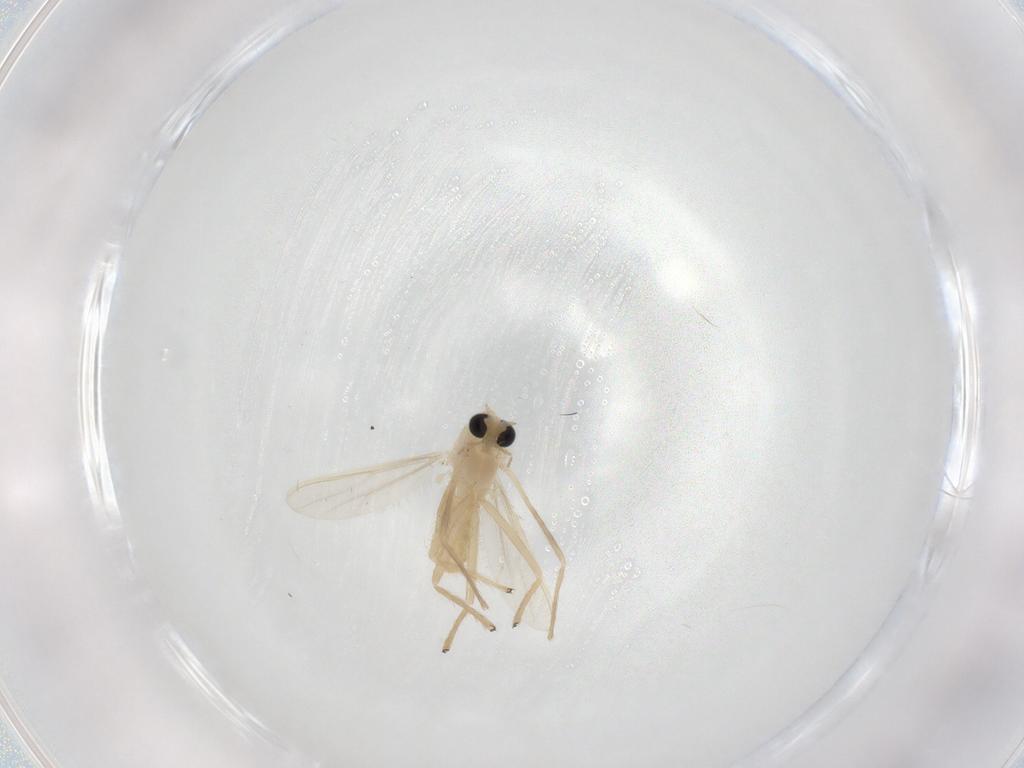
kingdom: Animalia
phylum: Arthropoda
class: Insecta
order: Diptera
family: Chironomidae
